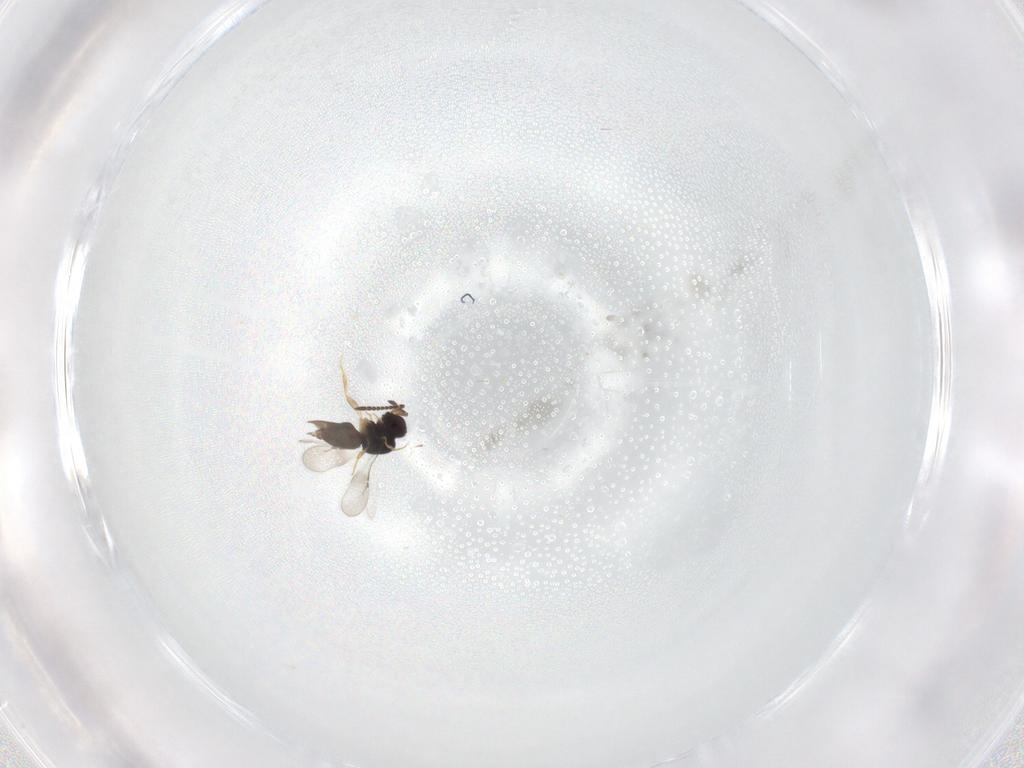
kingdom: Animalia
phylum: Arthropoda
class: Insecta
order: Hymenoptera
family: Ceraphronidae
